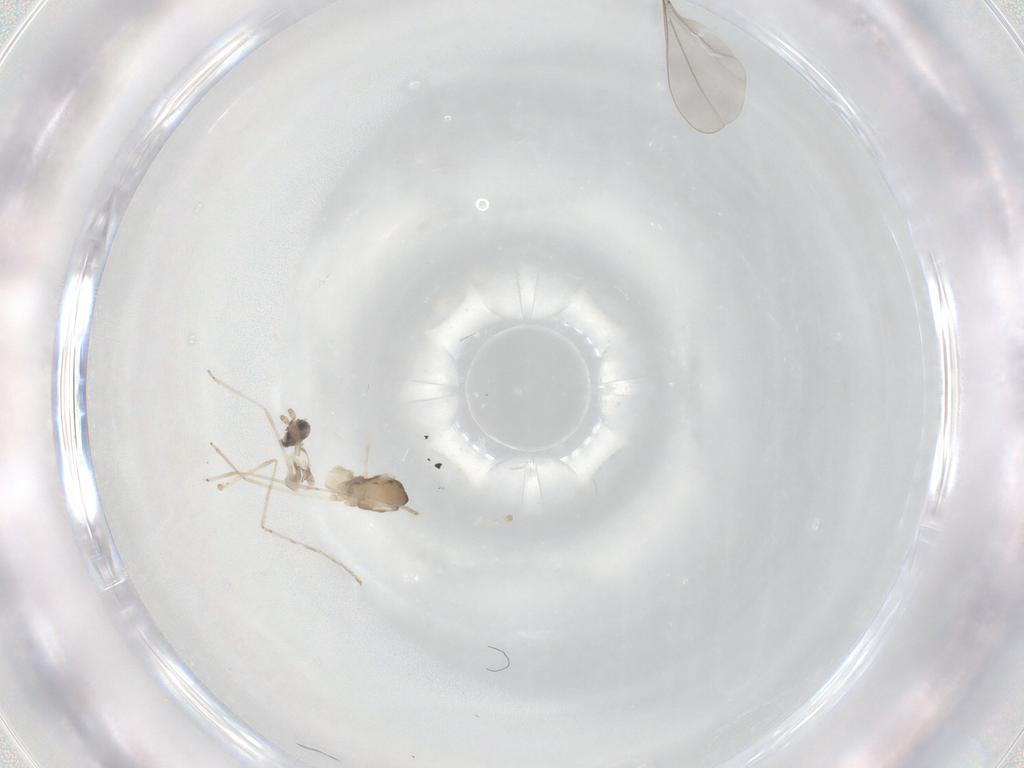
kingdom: Animalia
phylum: Arthropoda
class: Insecta
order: Diptera
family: Cecidomyiidae
